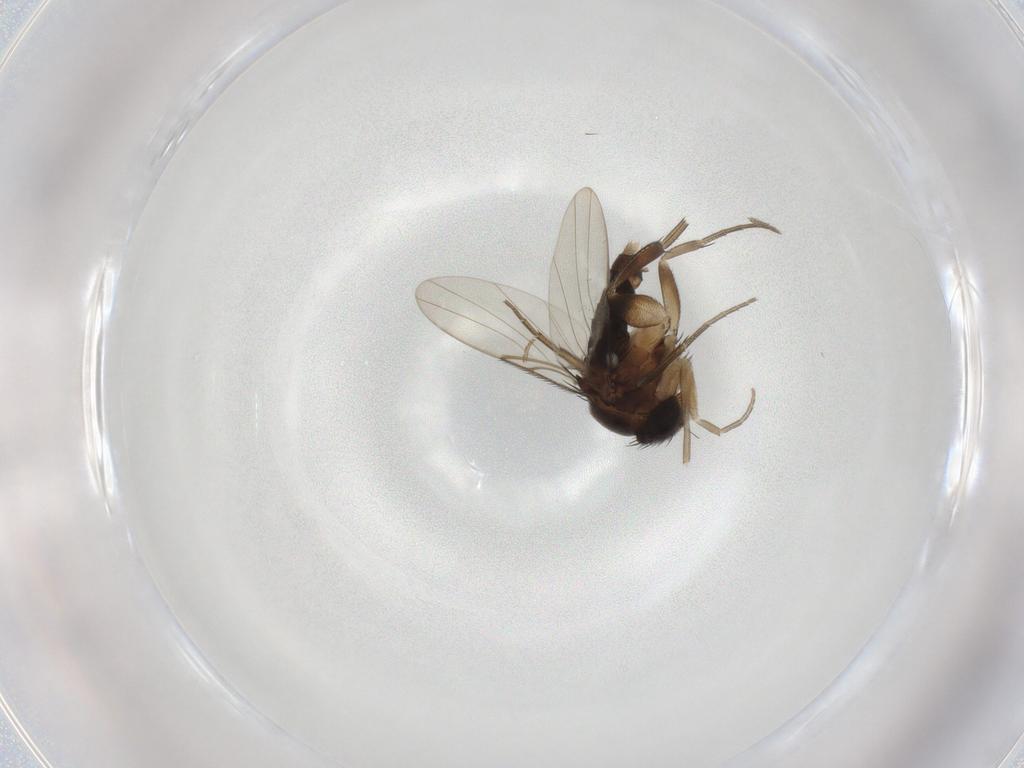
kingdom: Animalia
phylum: Arthropoda
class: Insecta
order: Diptera
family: Phoridae
